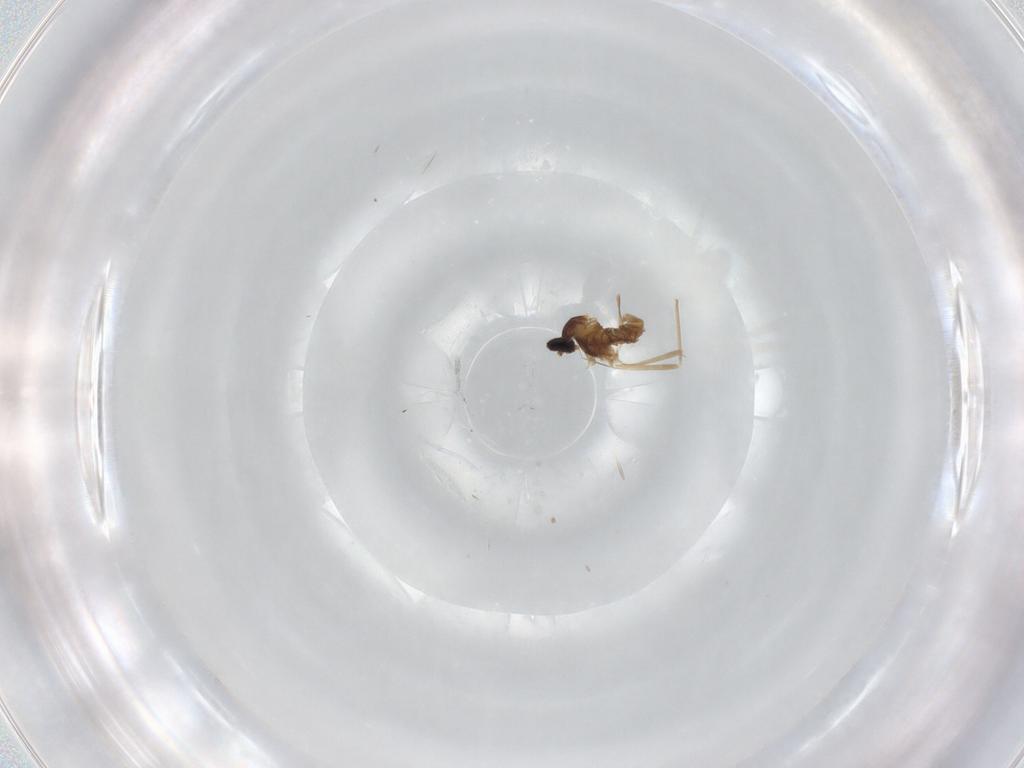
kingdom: Animalia
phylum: Arthropoda
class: Insecta
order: Diptera
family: Cecidomyiidae
